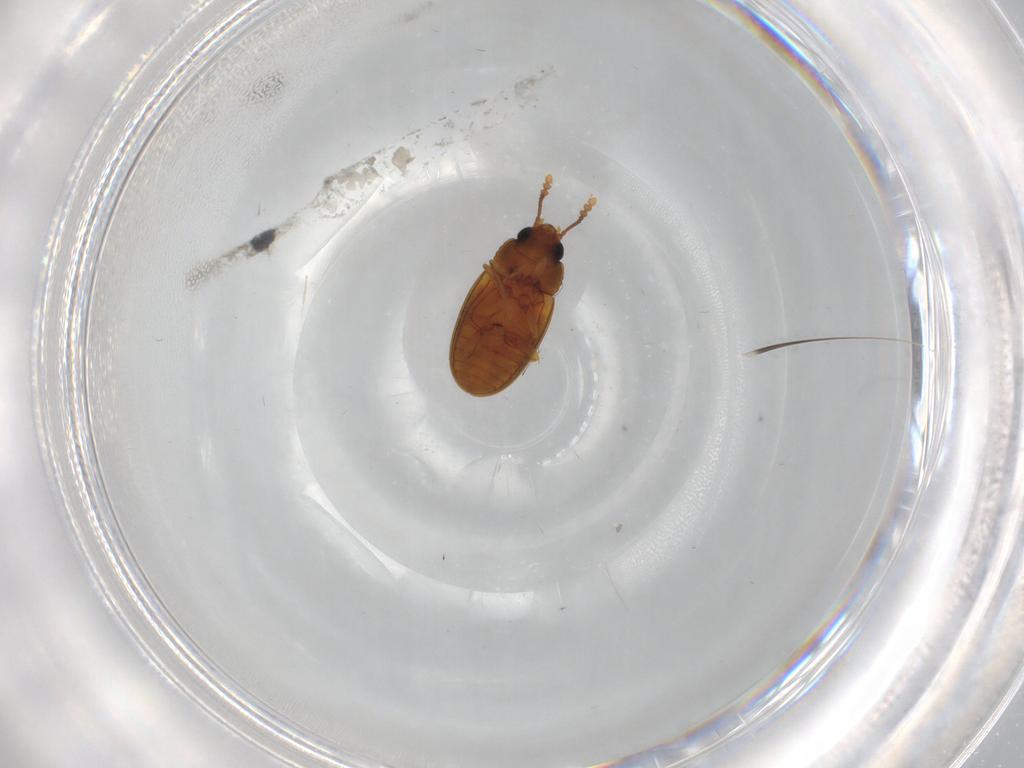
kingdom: Animalia
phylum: Arthropoda
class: Insecta
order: Coleoptera
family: Erotylidae
